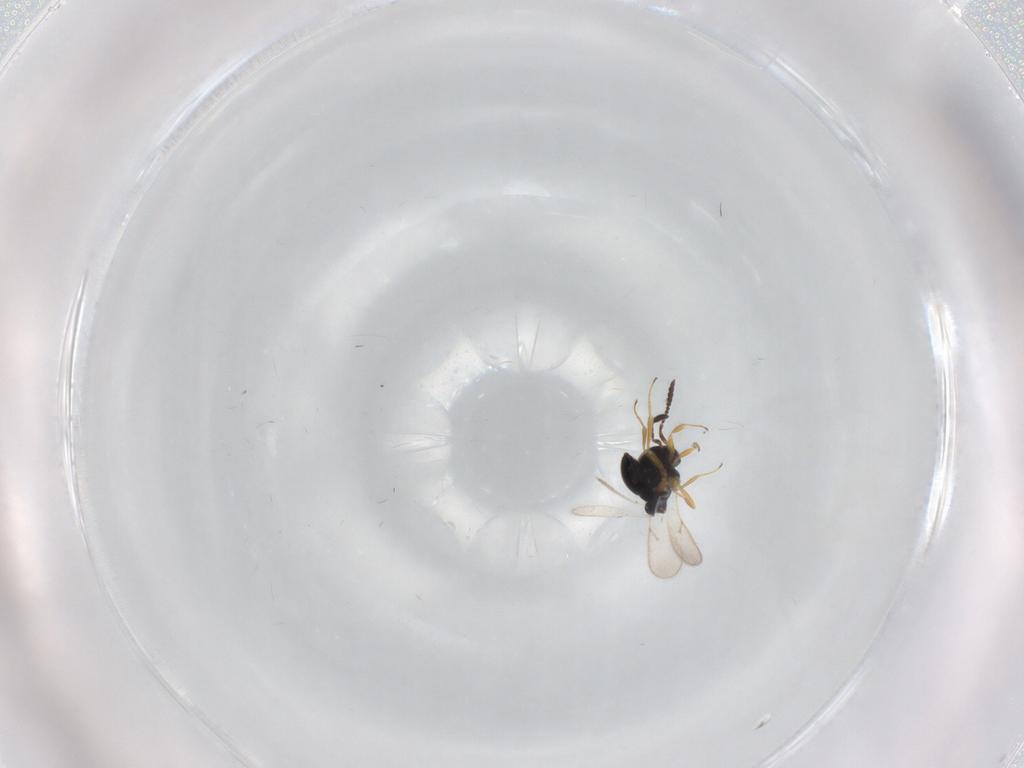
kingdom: Animalia
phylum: Arthropoda
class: Insecta
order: Hymenoptera
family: Scelionidae
